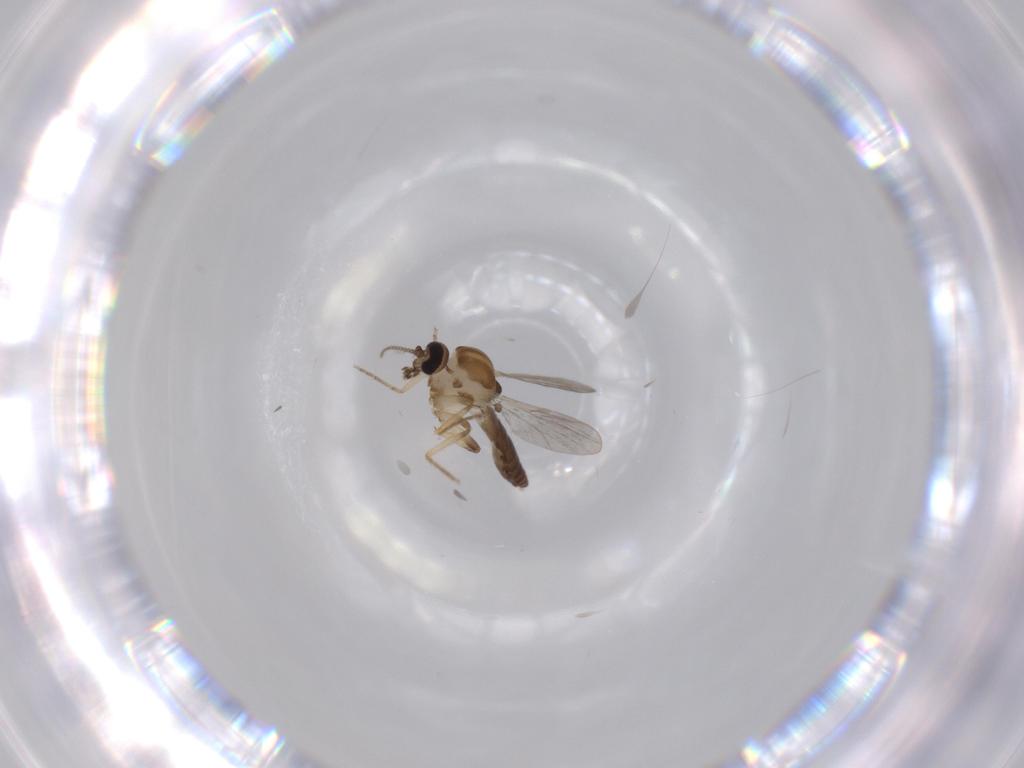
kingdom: Animalia
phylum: Arthropoda
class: Insecta
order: Diptera
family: Ceratopogonidae
